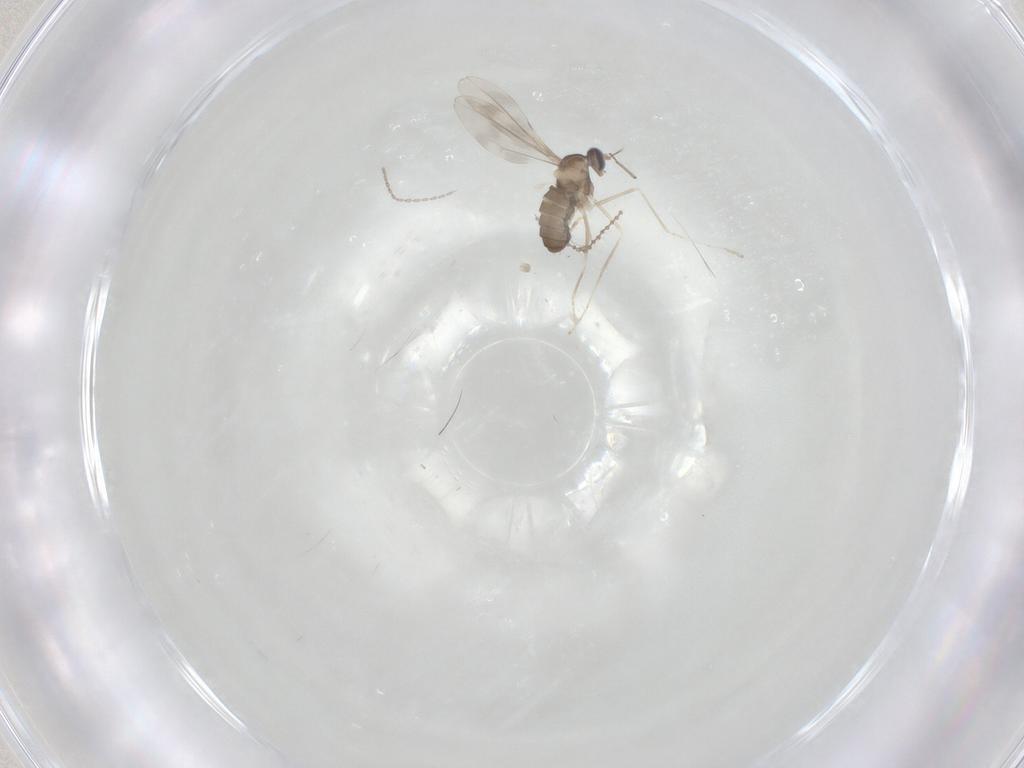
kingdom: Animalia
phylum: Arthropoda
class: Insecta
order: Diptera
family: Cecidomyiidae
